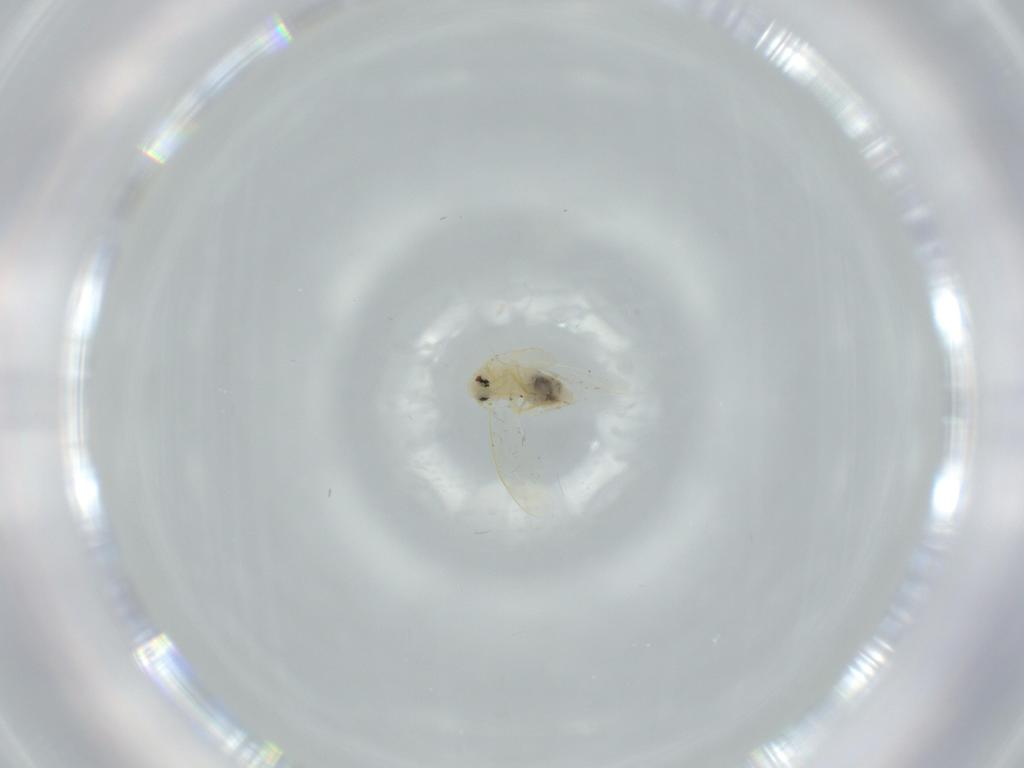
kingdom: Animalia
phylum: Arthropoda
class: Insecta
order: Hemiptera
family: Aleyrodidae
